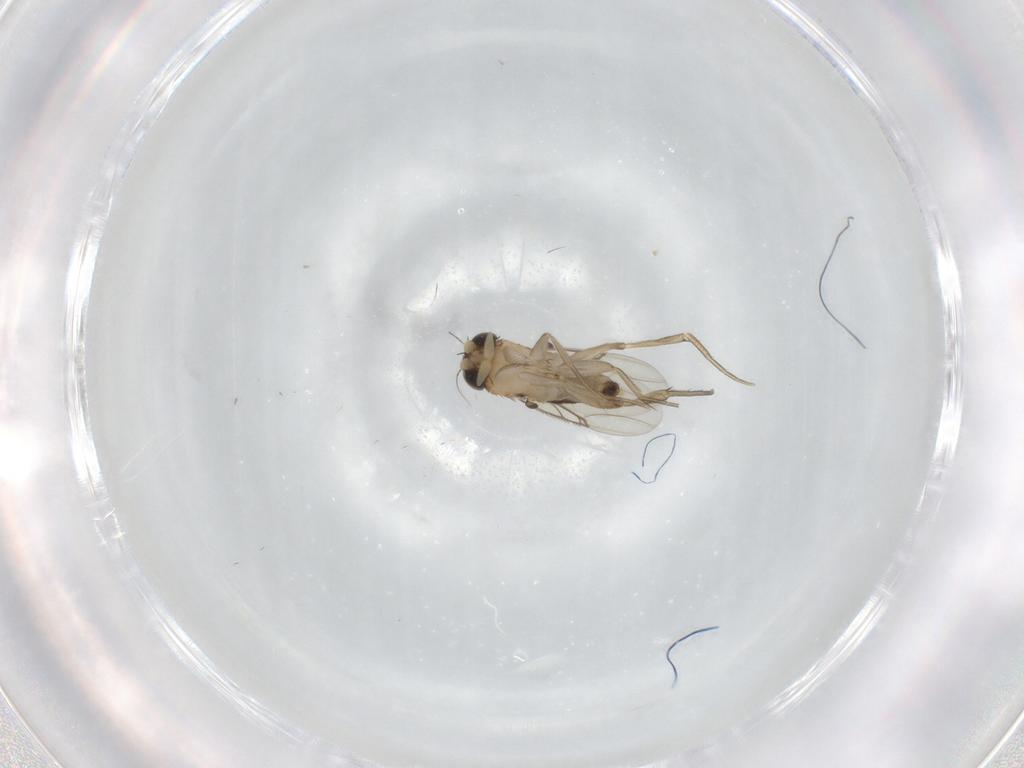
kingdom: Animalia
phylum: Arthropoda
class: Insecta
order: Diptera
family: Phoridae
